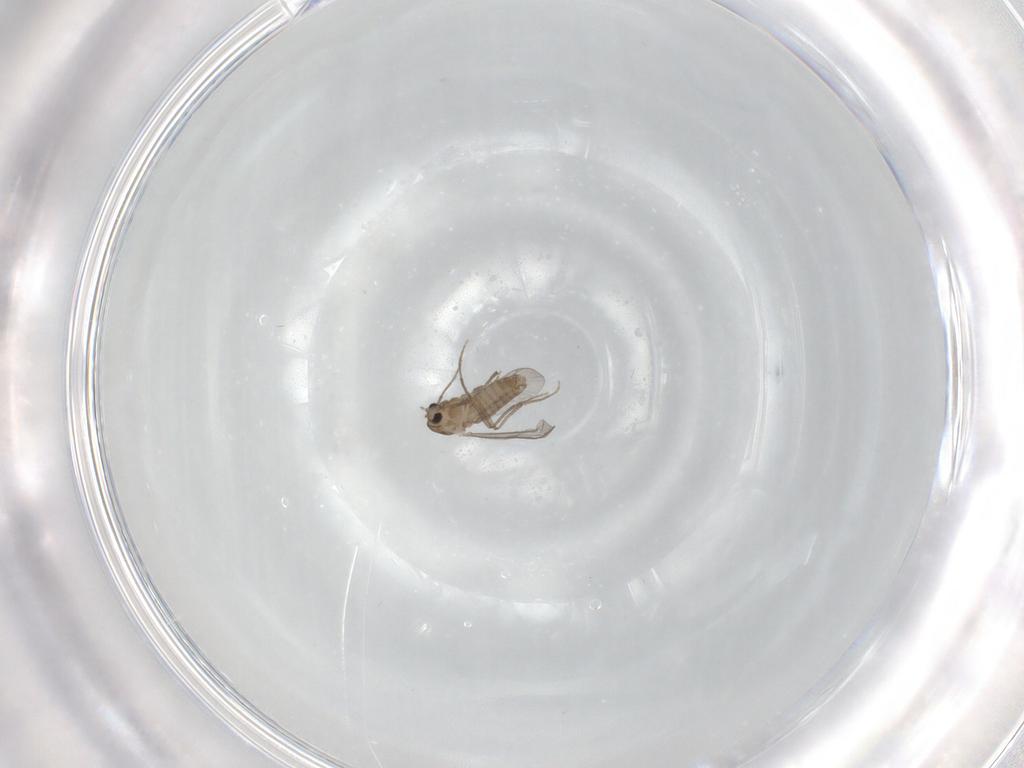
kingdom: Animalia
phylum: Arthropoda
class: Insecta
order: Diptera
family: Chironomidae
